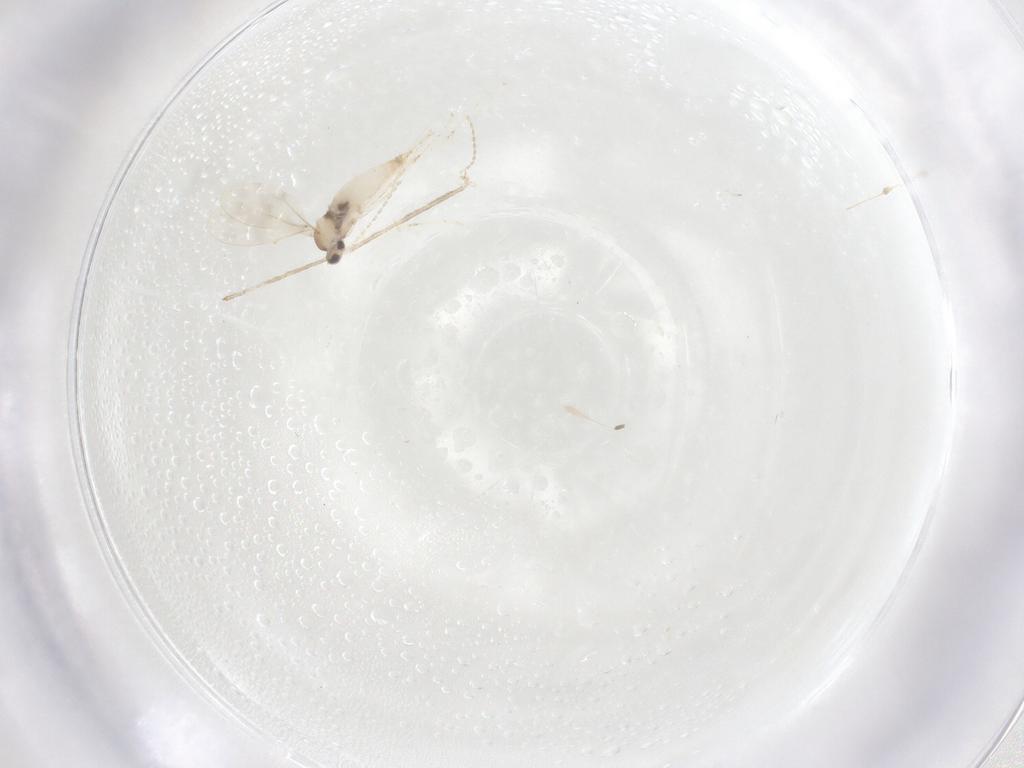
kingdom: Animalia
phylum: Arthropoda
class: Insecta
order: Diptera
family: Cecidomyiidae
